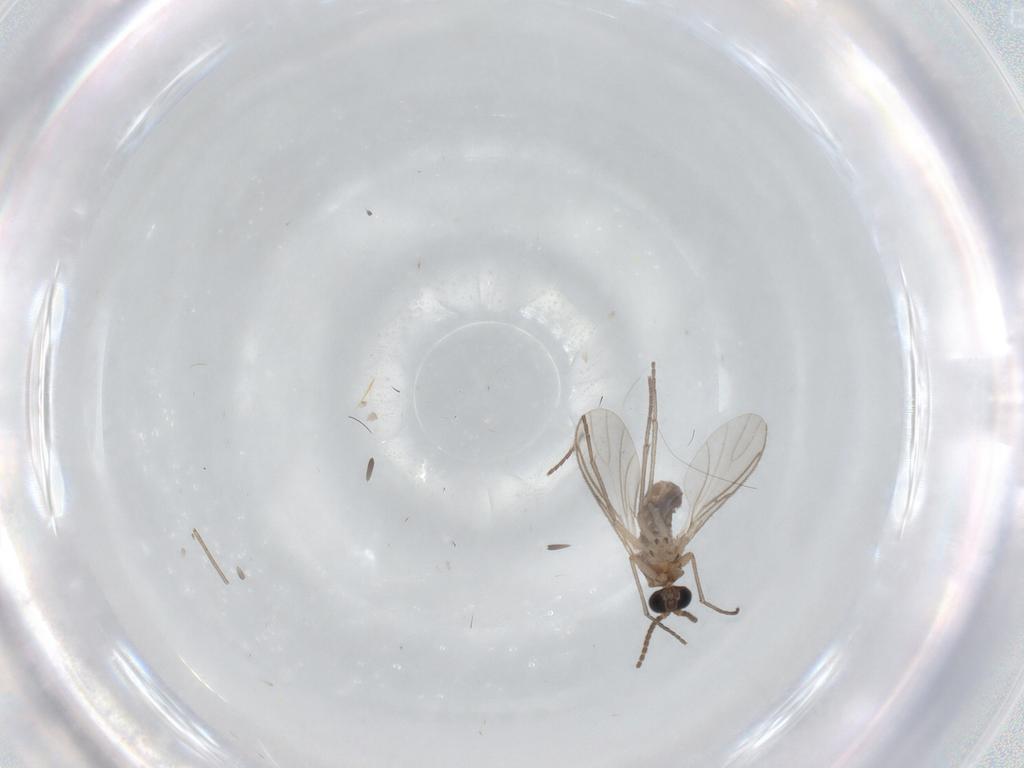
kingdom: Animalia
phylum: Arthropoda
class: Insecta
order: Diptera
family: Sciaridae
